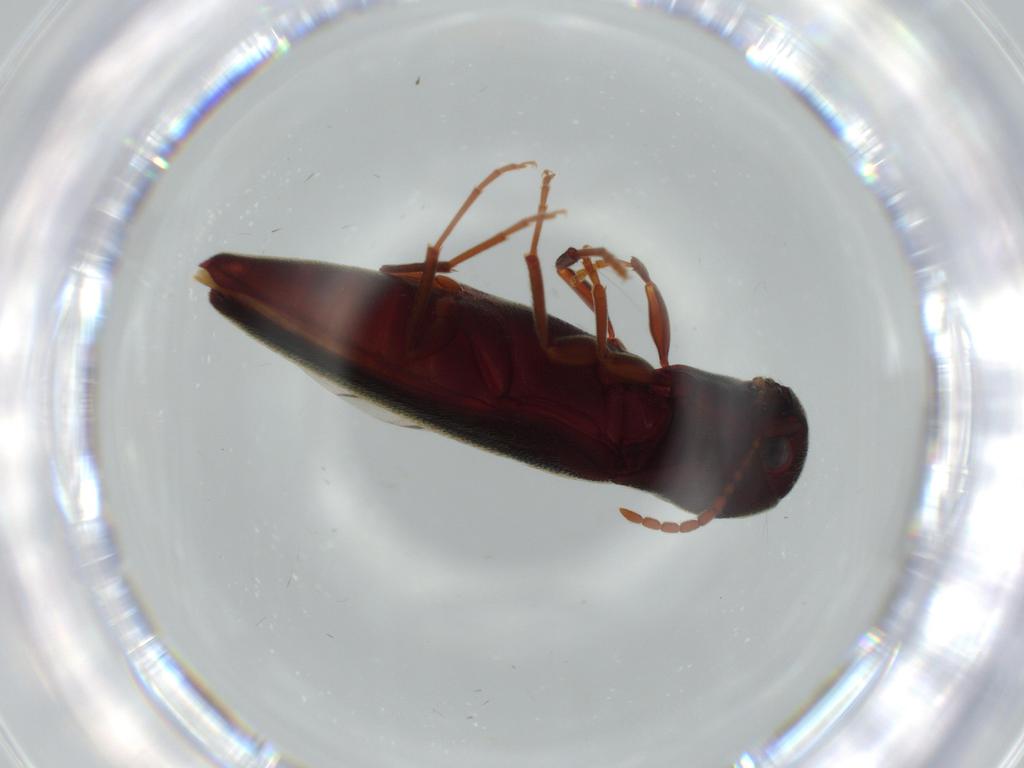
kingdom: Animalia
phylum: Arthropoda
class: Insecta
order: Coleoptera
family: Eucnemidae
